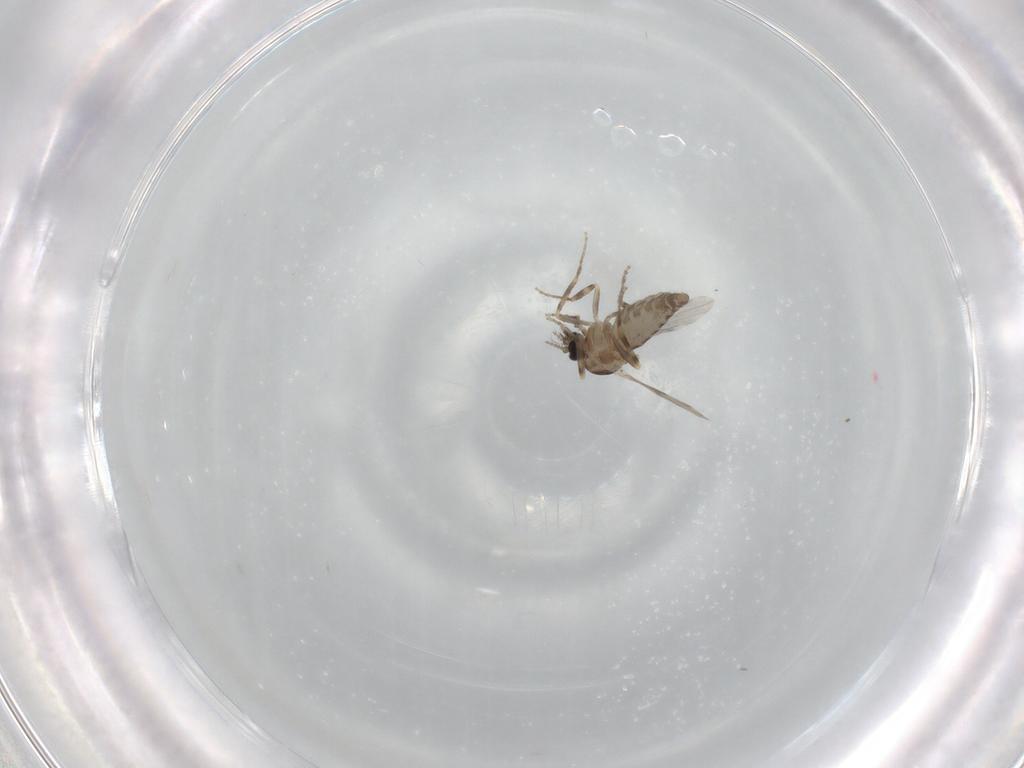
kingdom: Animalia
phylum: Arthropoda
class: Insecta
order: Diptera
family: Ceratopogonidae
